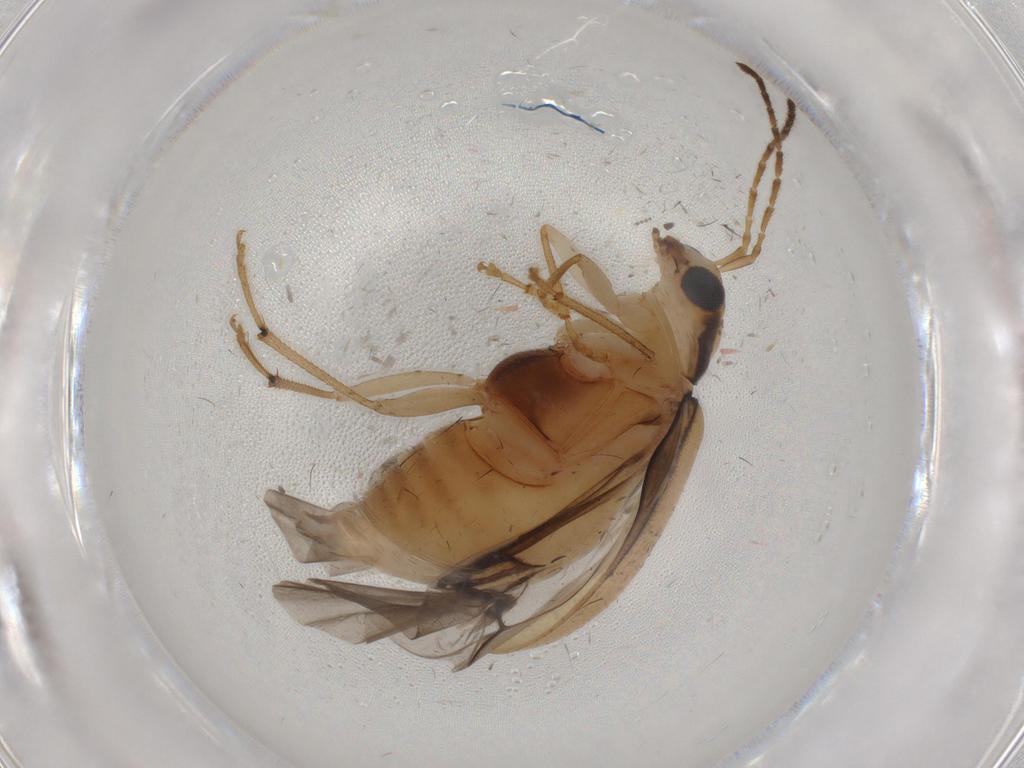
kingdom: Animalia
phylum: Arthropoda
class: Insecta
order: Coleoptera
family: Chrysomelidae
